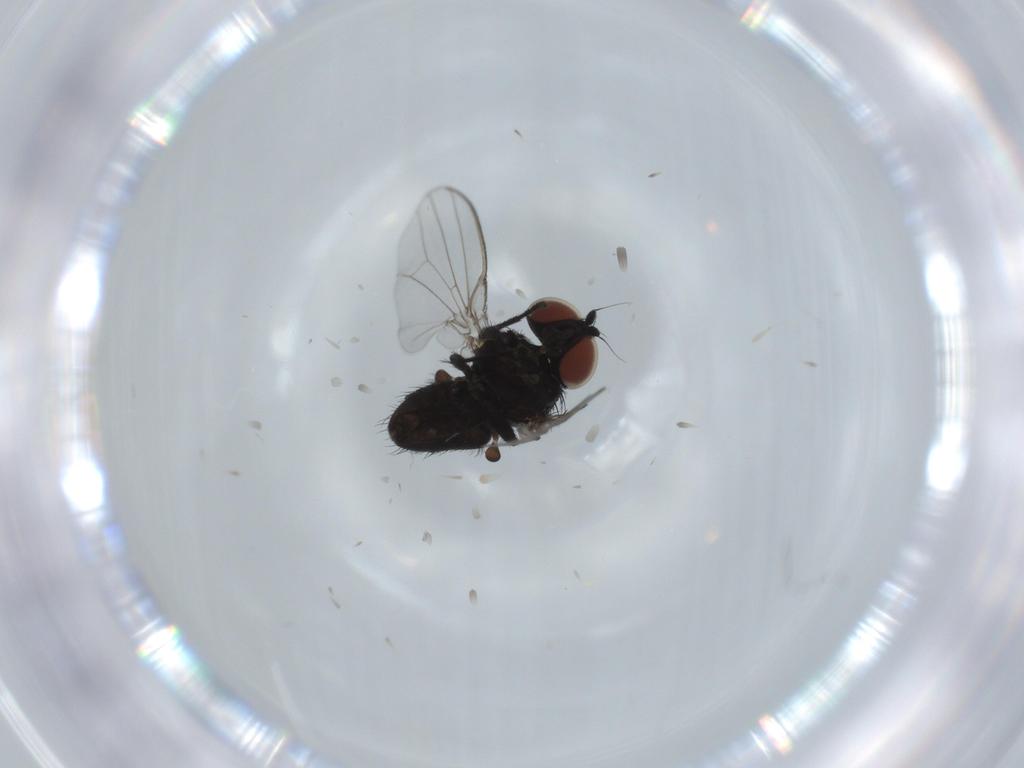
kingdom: Animalia
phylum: Arthropoda
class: Insecta
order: Diptera
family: Milichiidae
